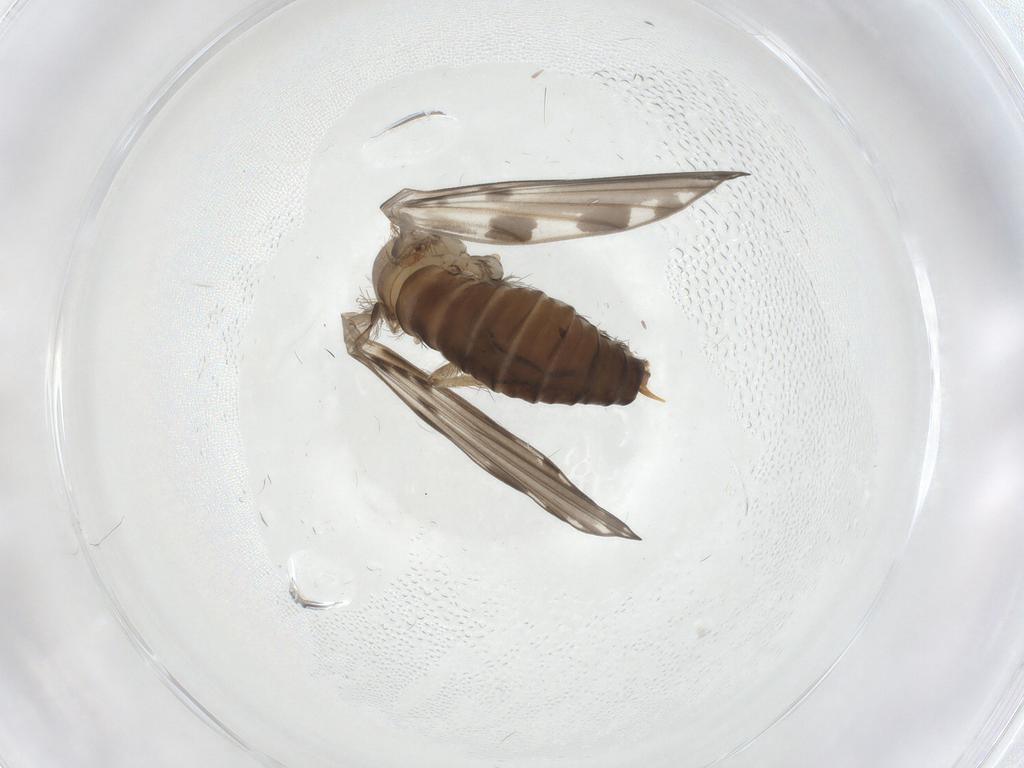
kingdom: Animalia
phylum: Arthropoda
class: Insecta
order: Diptera
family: Psychodidae
